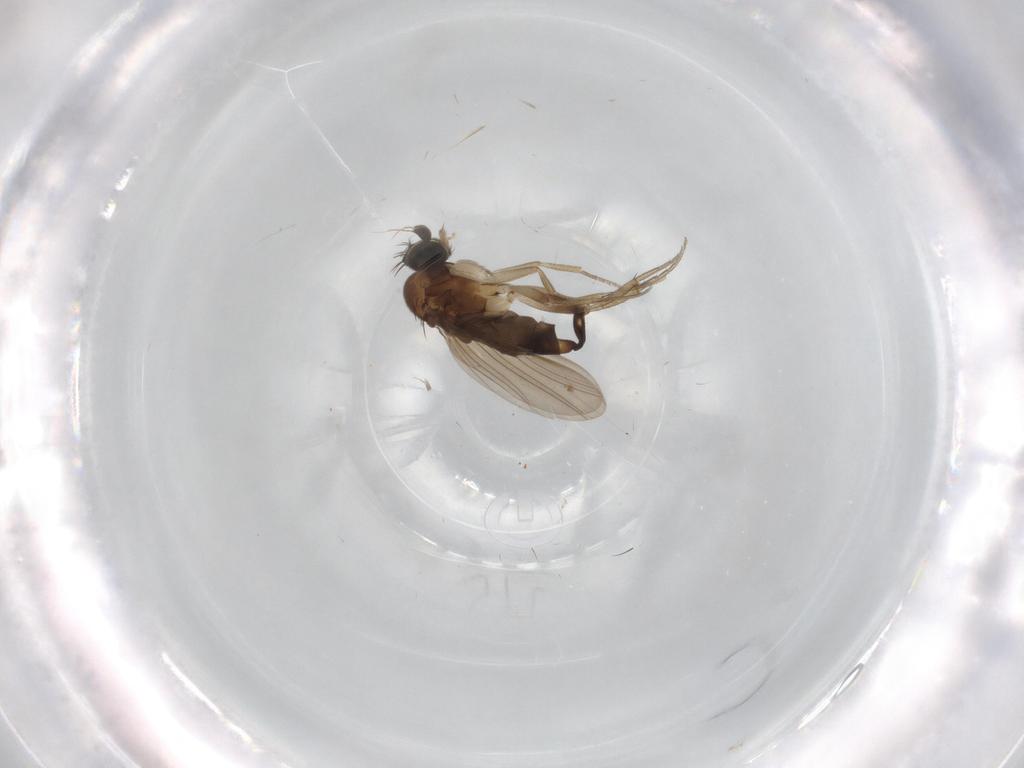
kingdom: Animalia
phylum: Arthropoda
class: Insecta
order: Diptera
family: Phoridae
